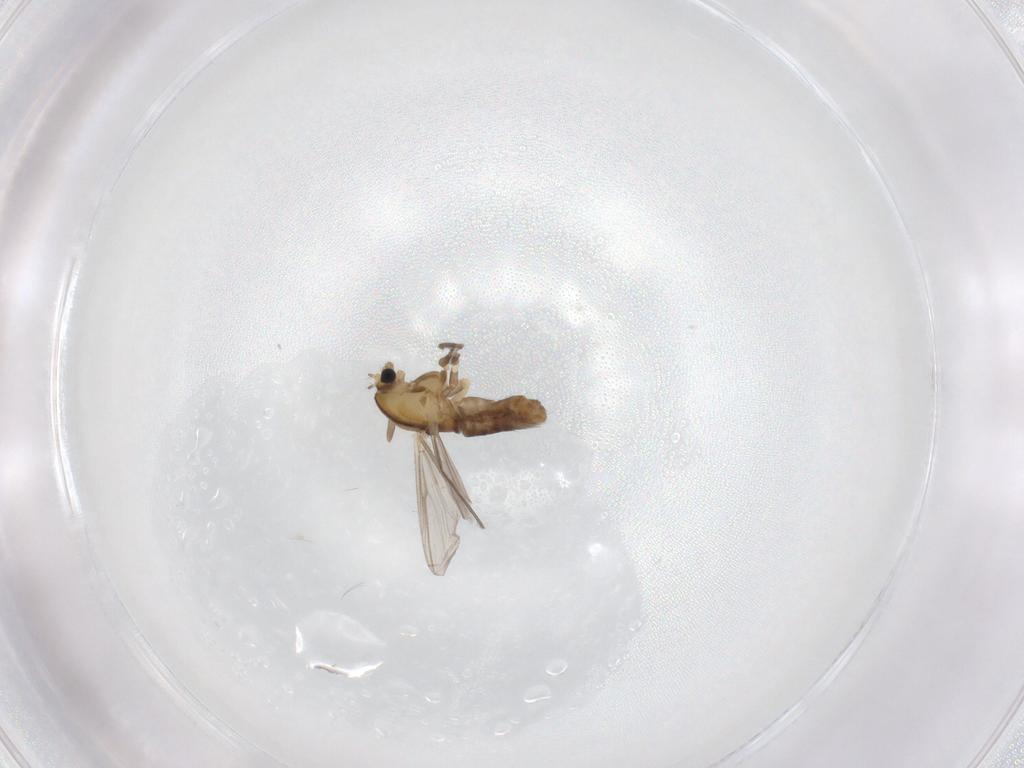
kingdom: Animalia
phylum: Arthropoda
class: Insecta
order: Diptera
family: Chironomidae
